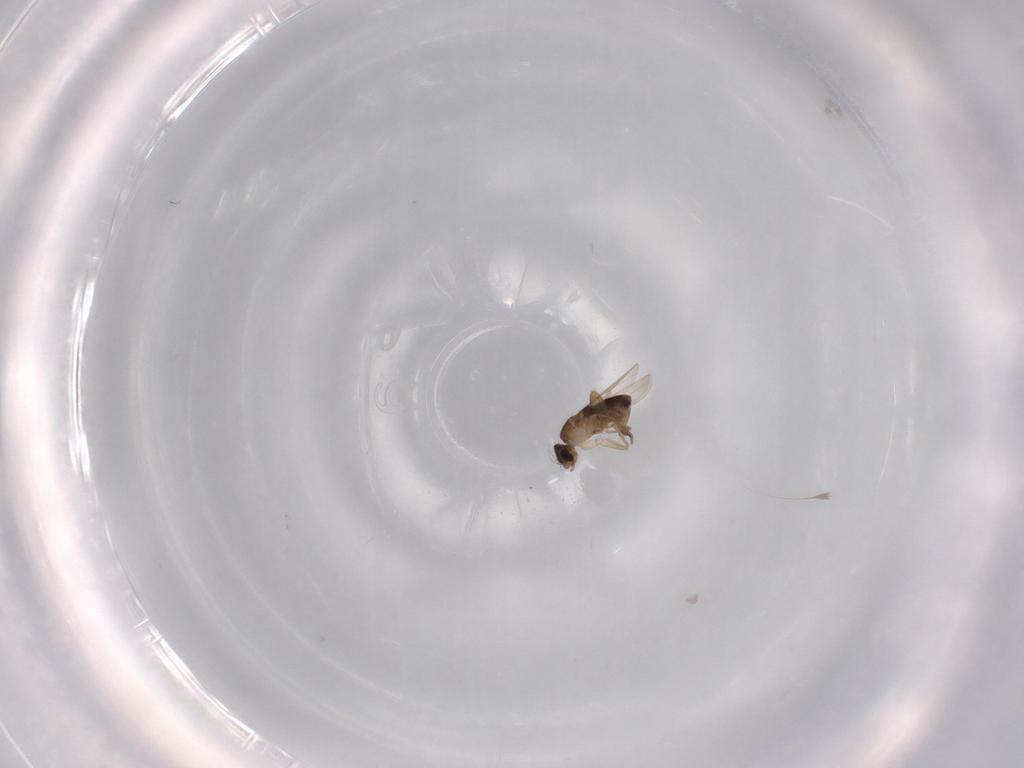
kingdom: Animalia
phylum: Arthropoda
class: Insecta
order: Diptera
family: Phoridae
